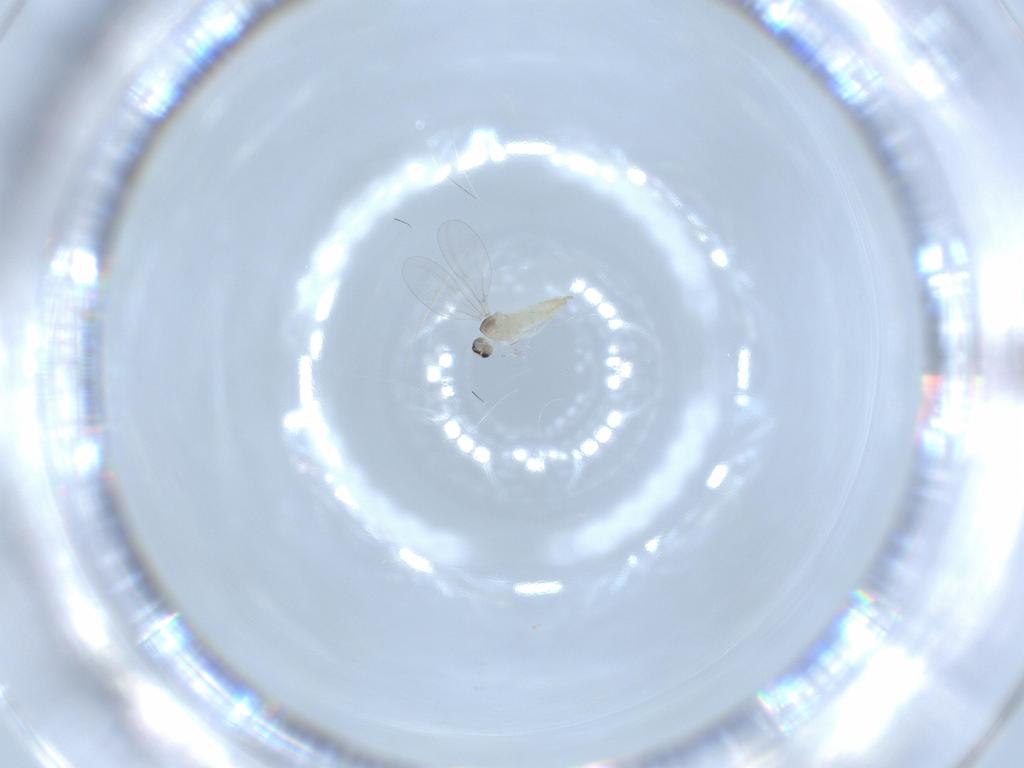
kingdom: Animalia
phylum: Arthropoda
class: Insecta
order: Diptera
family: Cecidomyiidae
